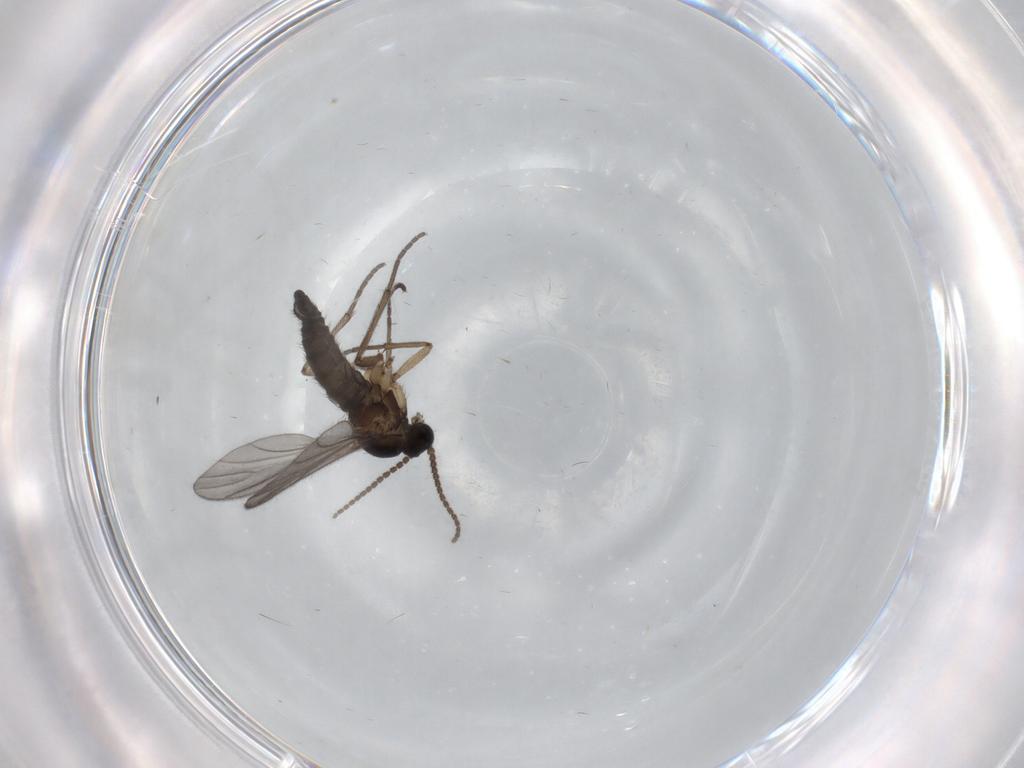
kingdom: Animalia
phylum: Arthropoda
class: Insecta
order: Diptera
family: Sciaridae
